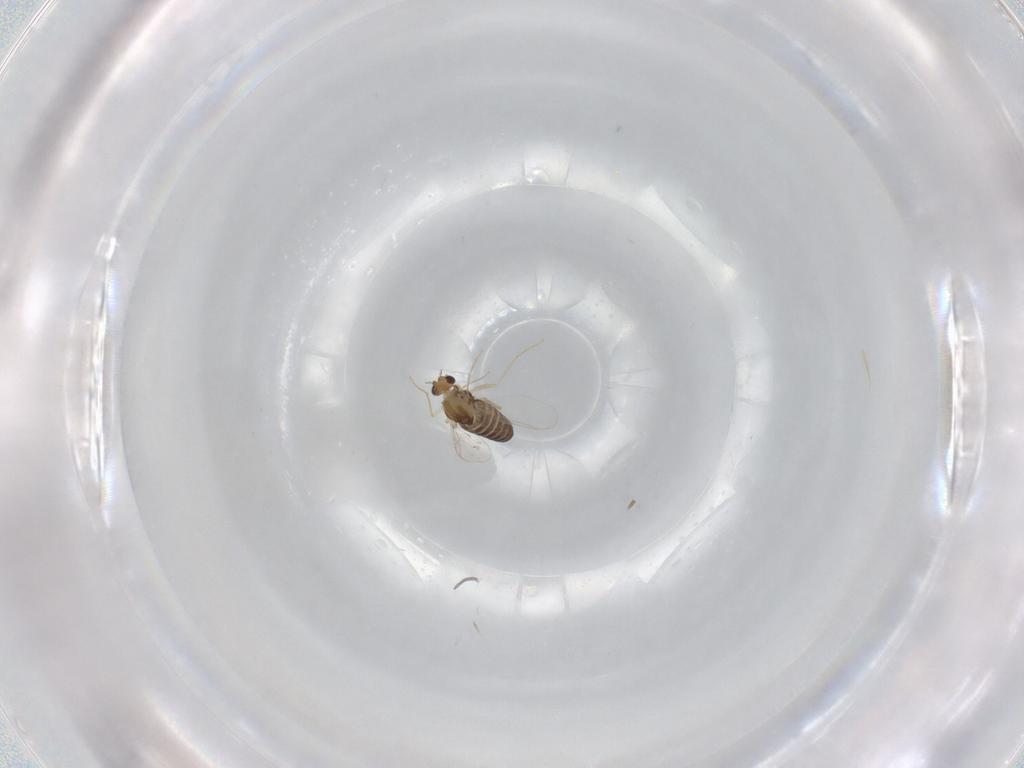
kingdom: Animalia
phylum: Arthropoda
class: Insecta
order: Diptera
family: Chironomidae
